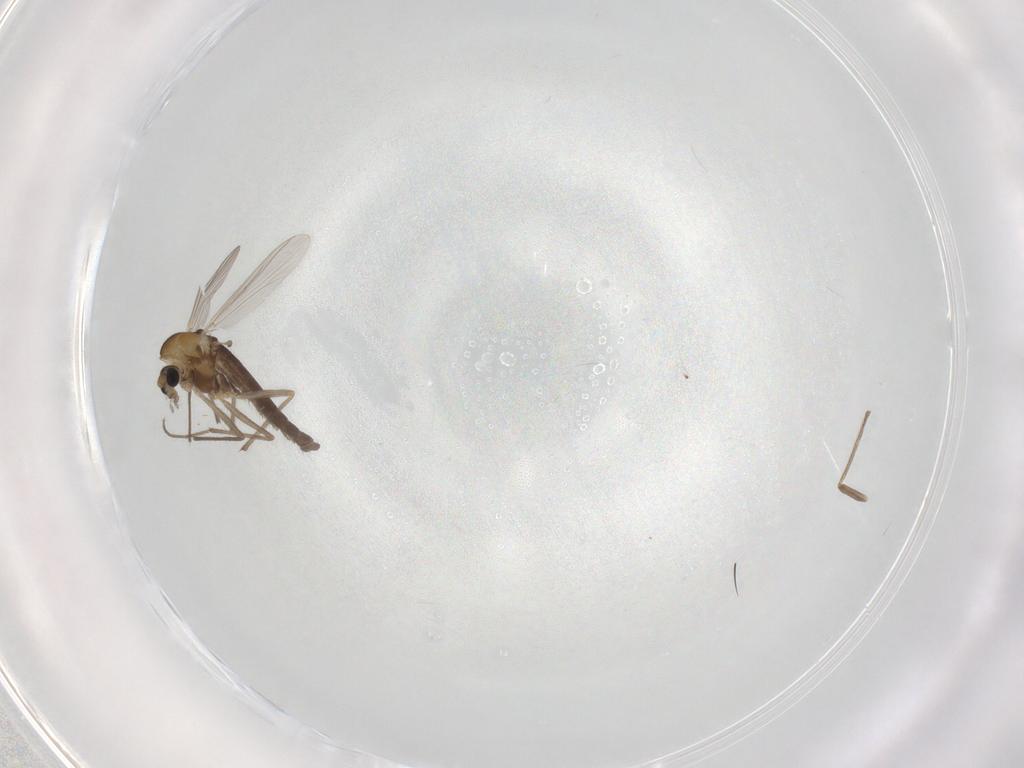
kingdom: Animalia
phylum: Arthropoda
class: Insecta
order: Diptera
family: Chironomidae
